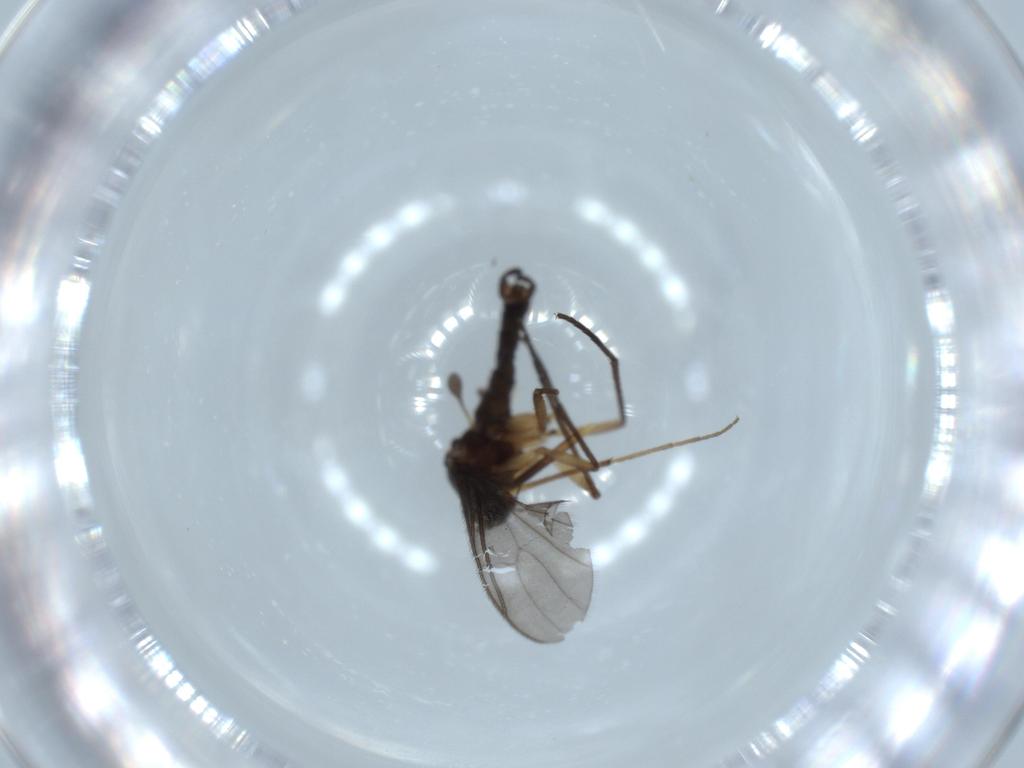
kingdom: Animalia
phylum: Arthropoda
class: Insecta
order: Diptera
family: Chironomidae
